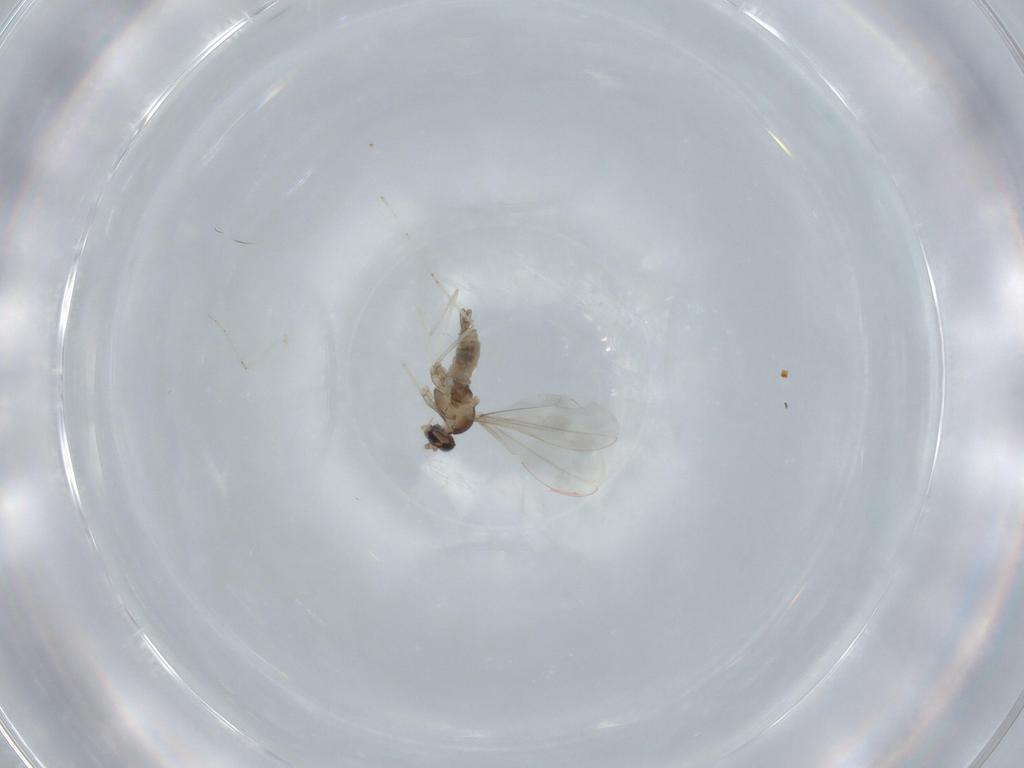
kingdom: Animalia
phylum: Arthropoda
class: Insecta
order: Diptera
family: Cecidomyiidae
